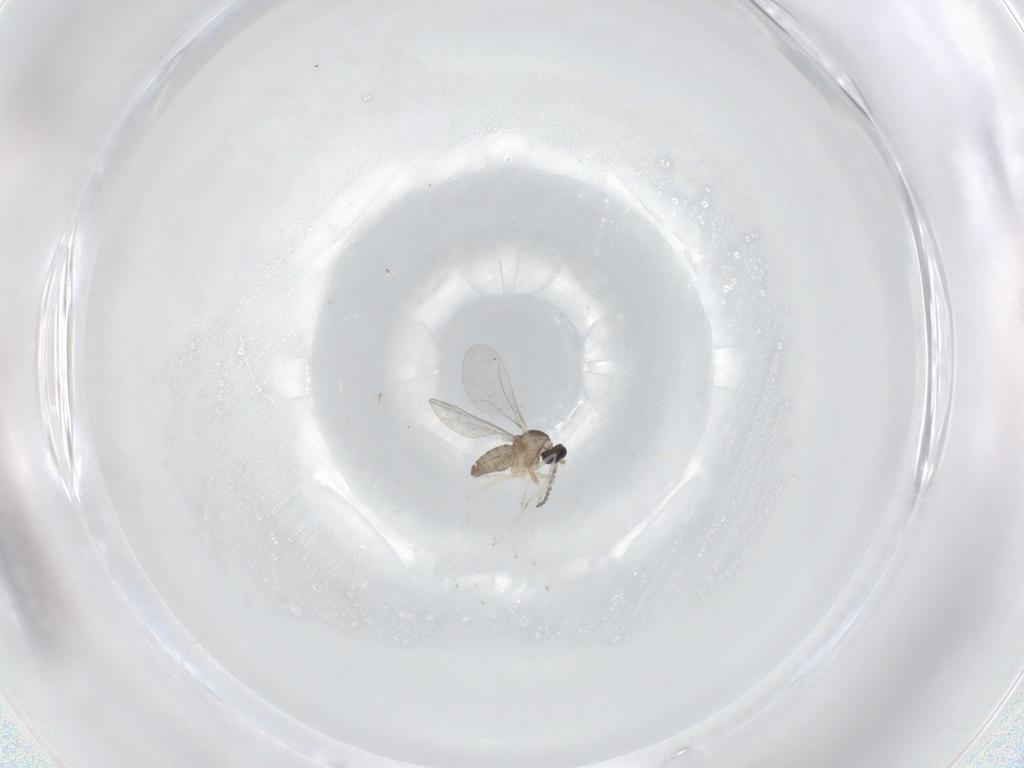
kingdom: Animalia
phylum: Arthropoda
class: Insecta
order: Diptera
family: Cecidomyiidae
